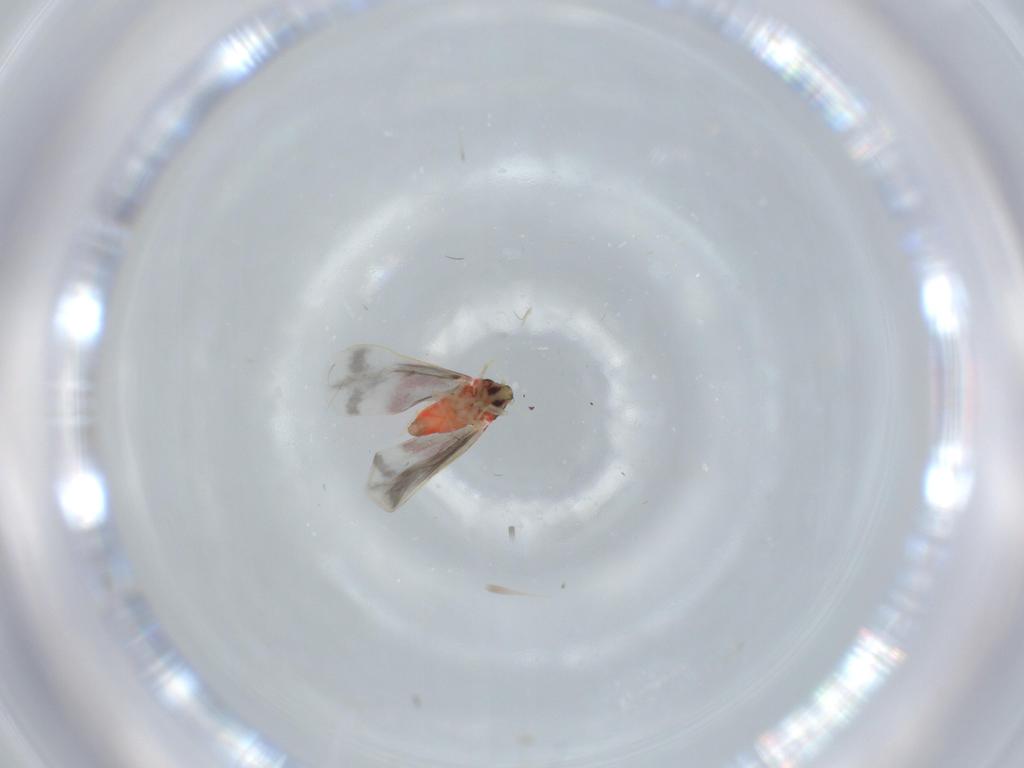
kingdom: Animalia
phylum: Arthropoda
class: Insecta
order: Hemiptera
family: Aleyrodidae
